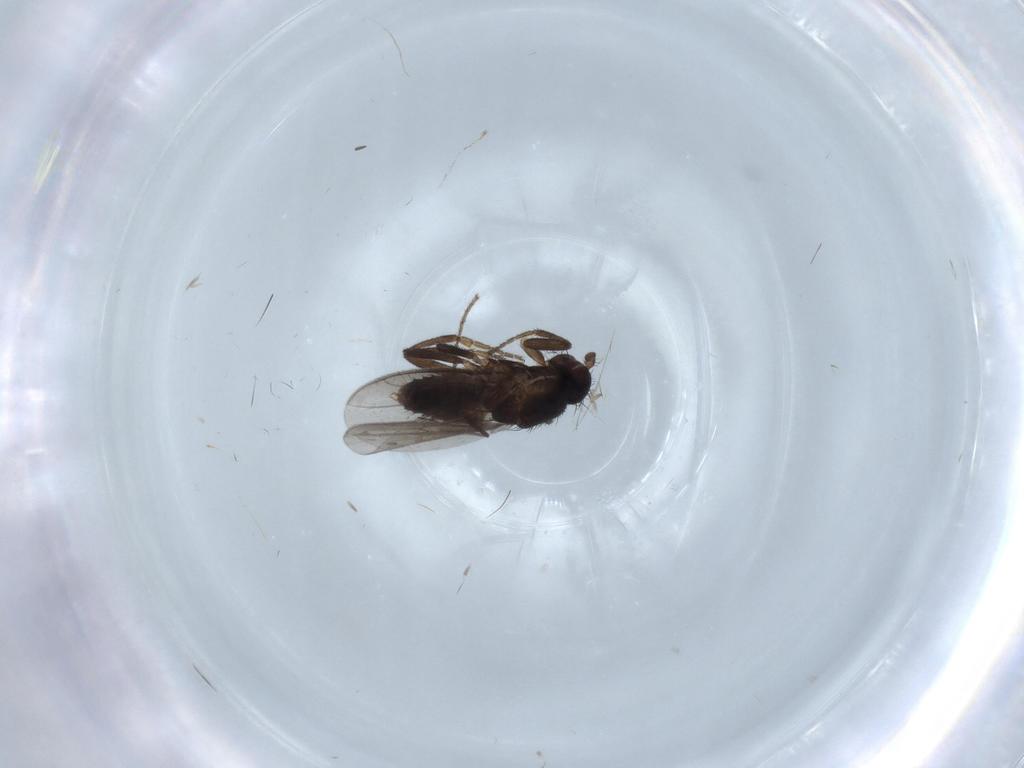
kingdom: Animalia
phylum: Arthropoda
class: Insecta
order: Diptera
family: Sphaeroceridae
